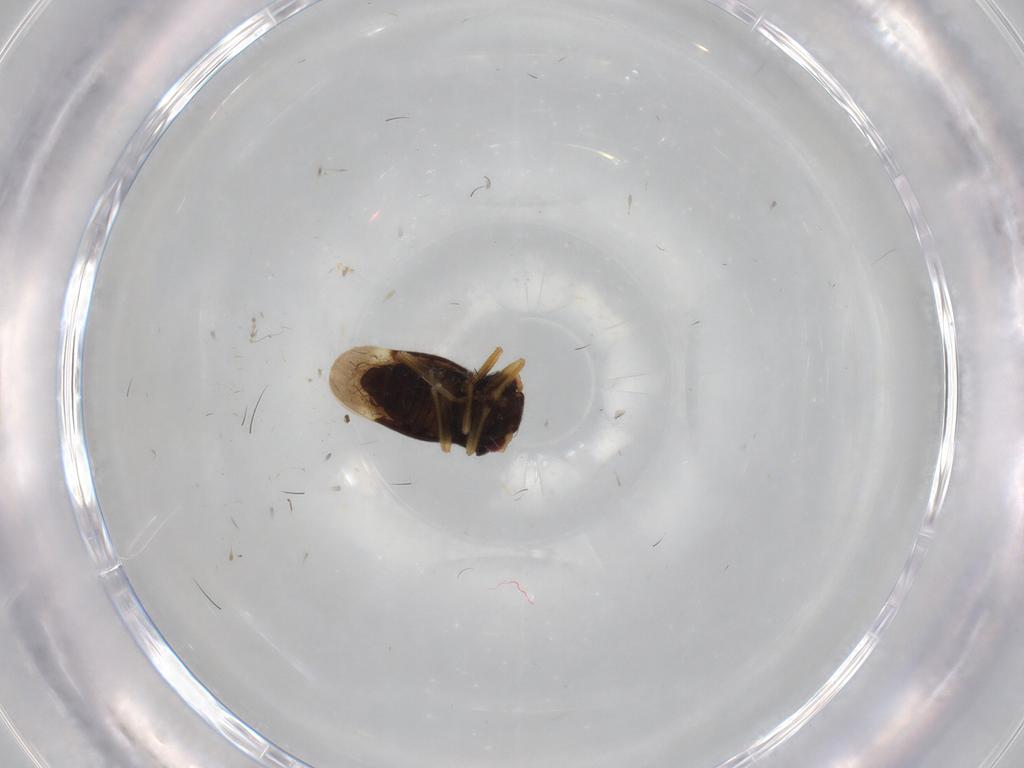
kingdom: Animalia
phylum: Arthropoda
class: Insecta
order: Hemiptera
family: Schizopteridae
